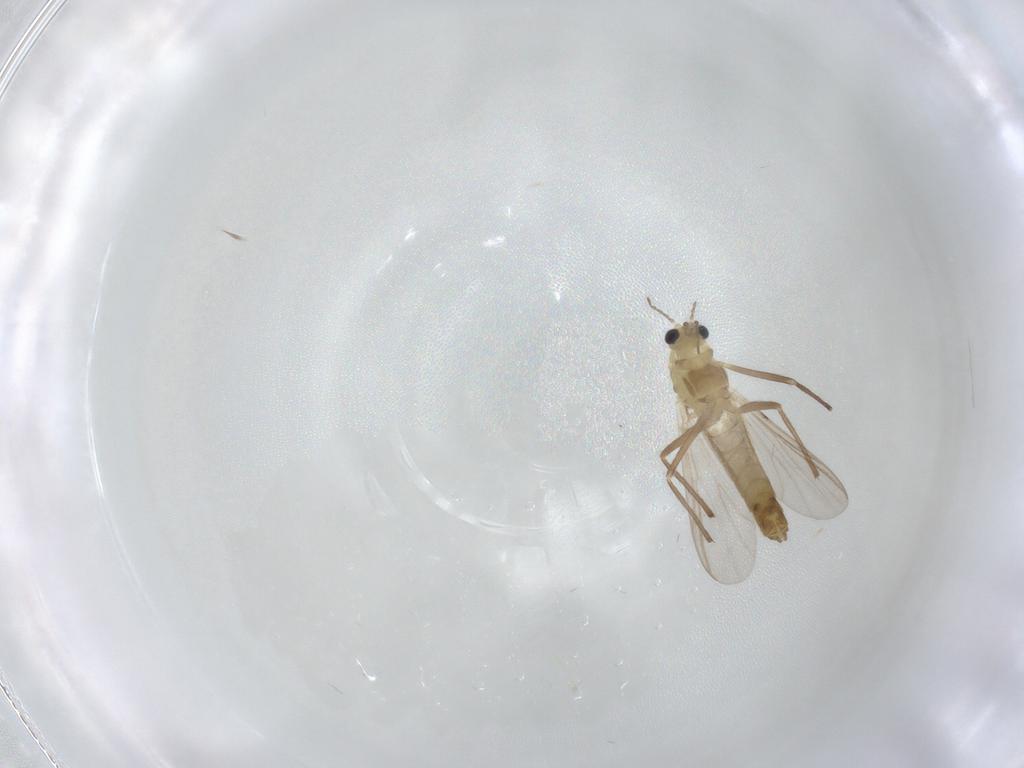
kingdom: Animalia
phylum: Arthropoda
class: Insecta
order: Diptera
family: Chironomidae
